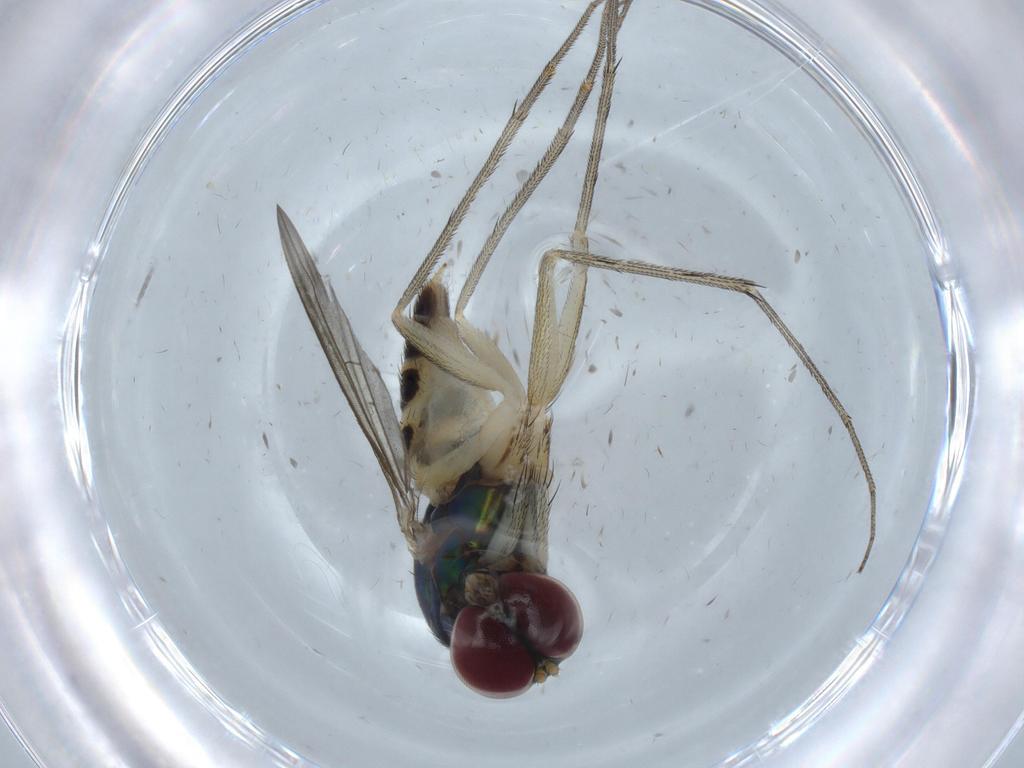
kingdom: Animalia
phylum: Arthropoda
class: Insecta
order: Diptera
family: Dolichopodidae
